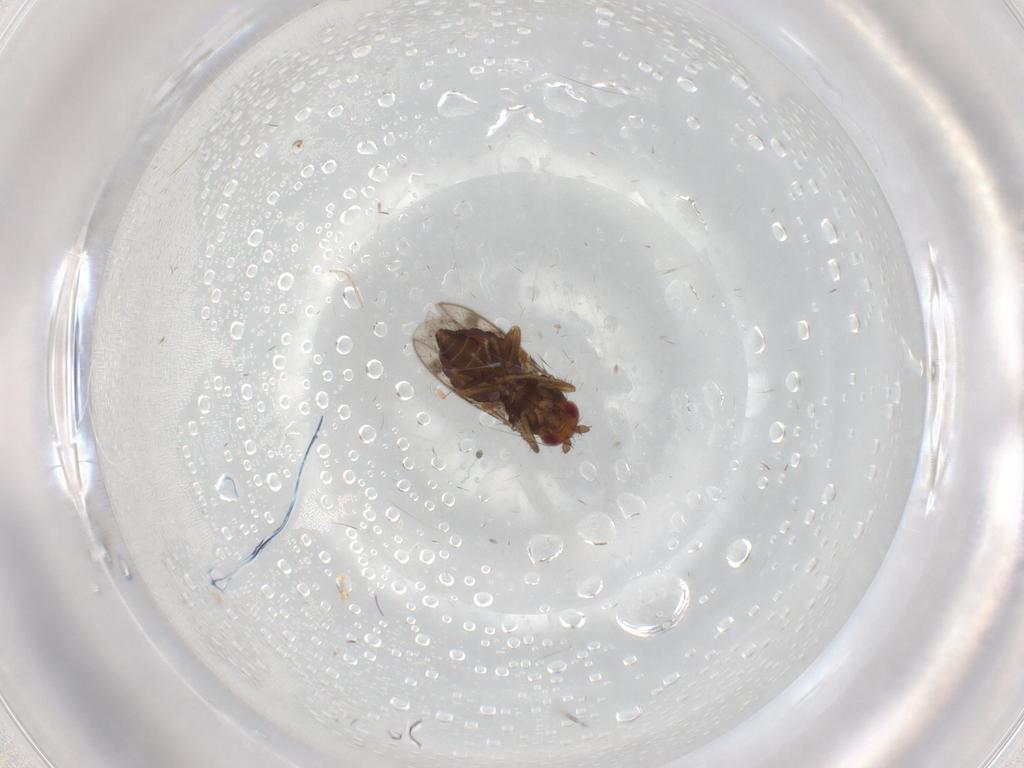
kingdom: Animalia
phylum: Arthropoda
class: Insecta
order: Diptera
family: Sphaeroceridae
